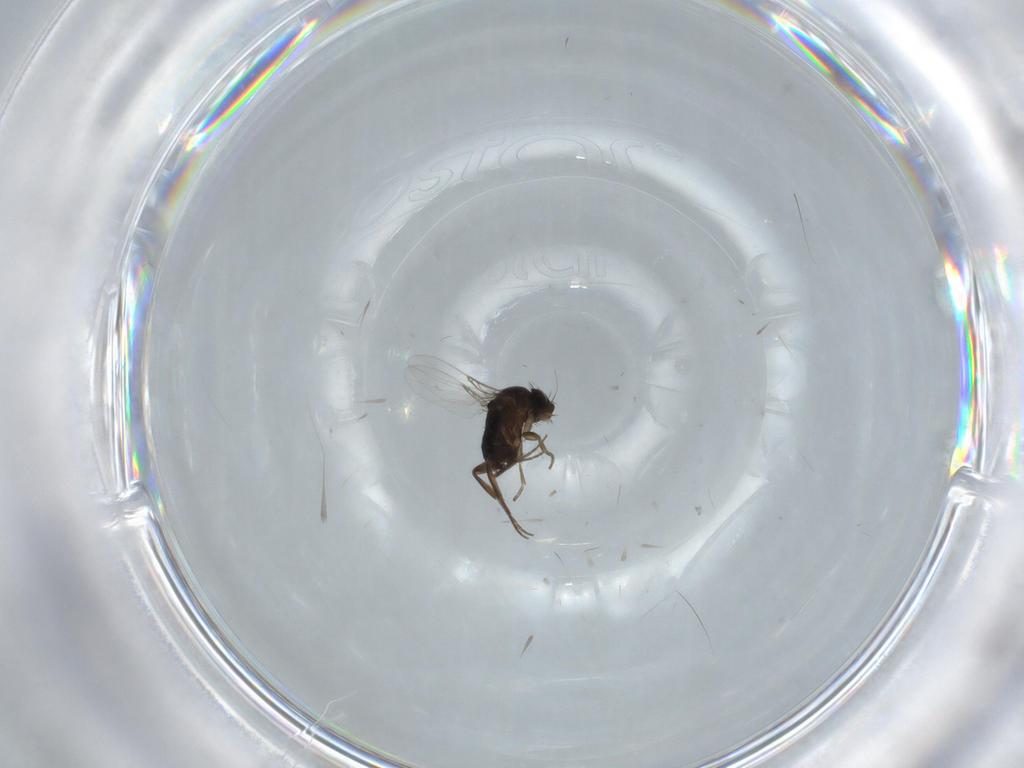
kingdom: Animalia
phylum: Arthropoda
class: Insecta
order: Diptera
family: Phoridae
